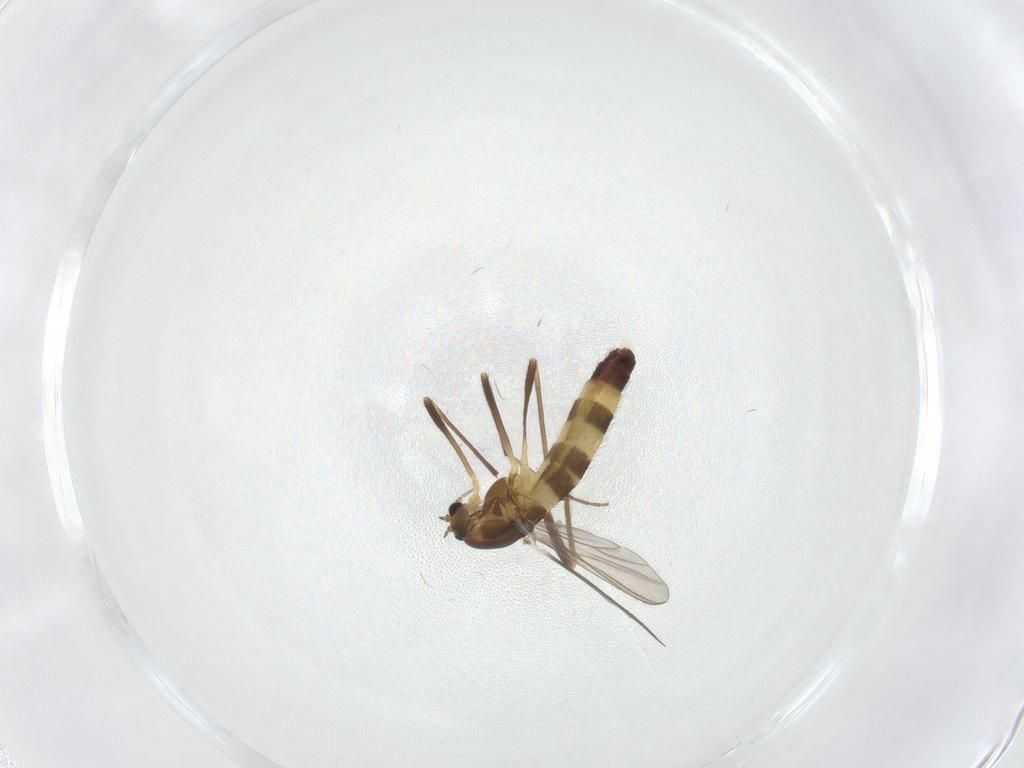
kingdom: Animalia
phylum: Arthropoda
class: Insecta
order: Diptera
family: Chironomidae
